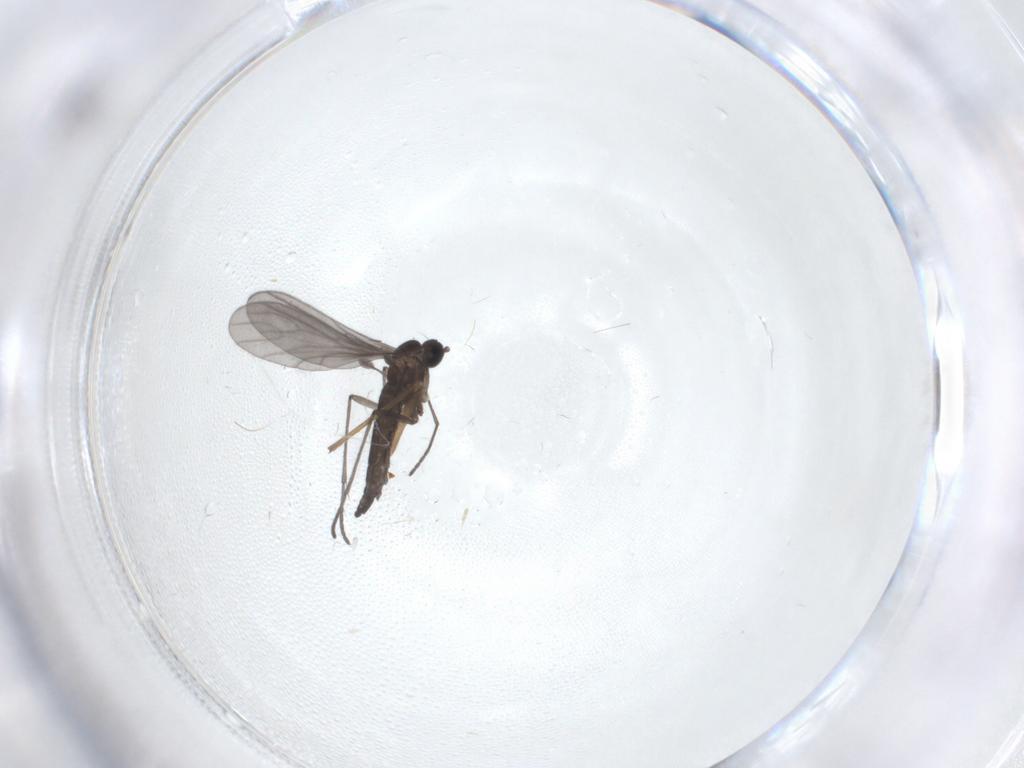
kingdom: Animalia
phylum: Arthropoda
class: Insecta
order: Diptera
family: Chironomidae
